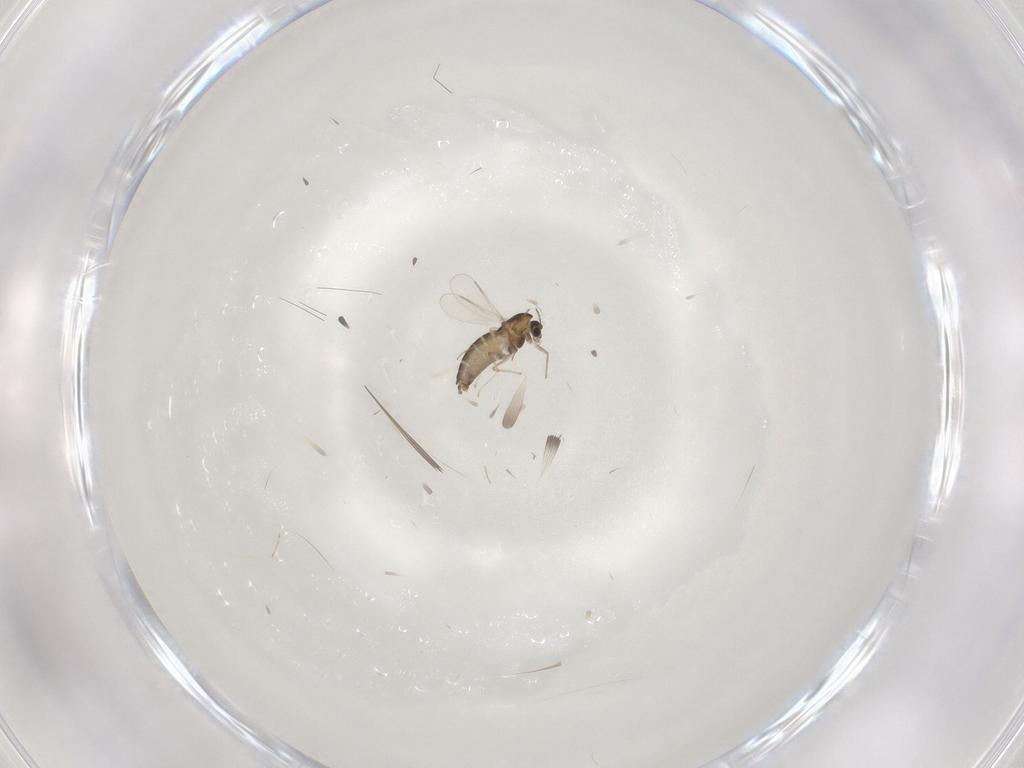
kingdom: Animalia
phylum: Arthropoda
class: Insecta
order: Diptera
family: Chironomidae
